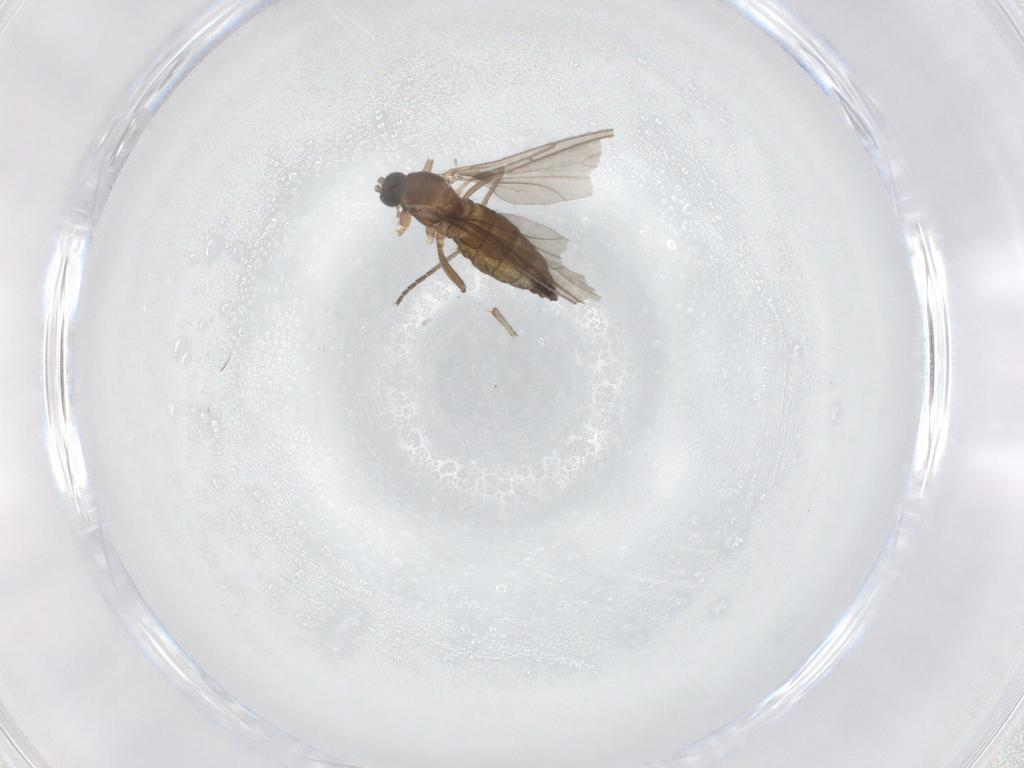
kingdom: Animalia
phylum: Arthropoda
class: Insecta
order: Diptera
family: Sciaridae
